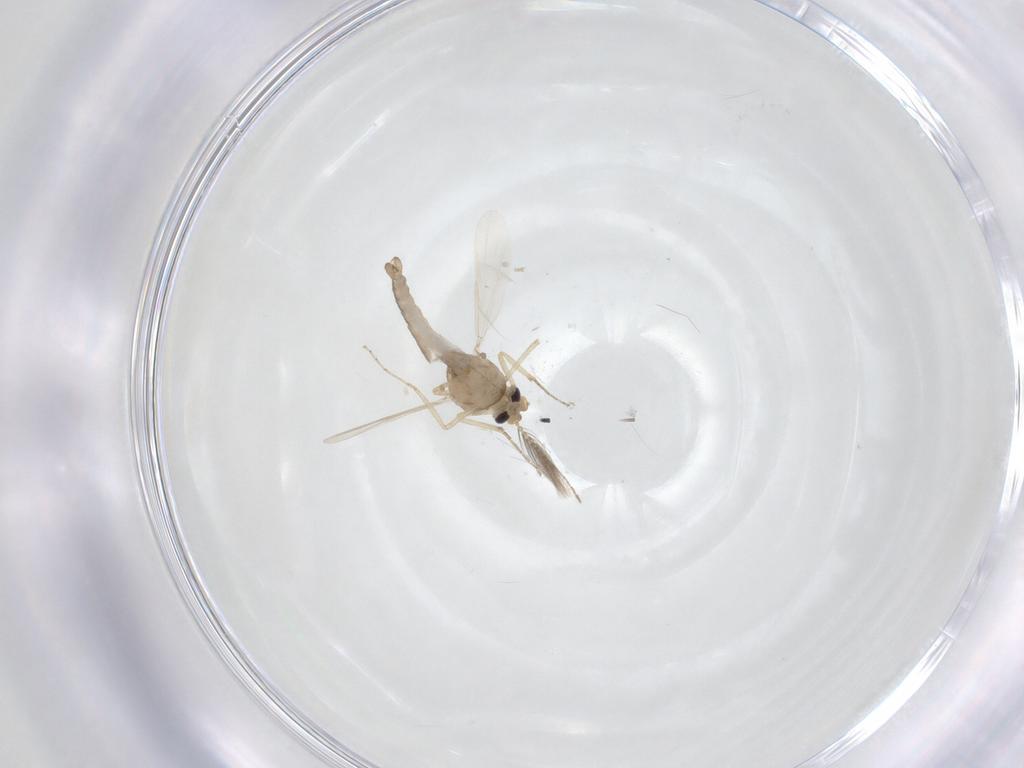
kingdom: Animalia
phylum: Arthropoda
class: Insecta
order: Diptera
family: Ceratopogonidae
